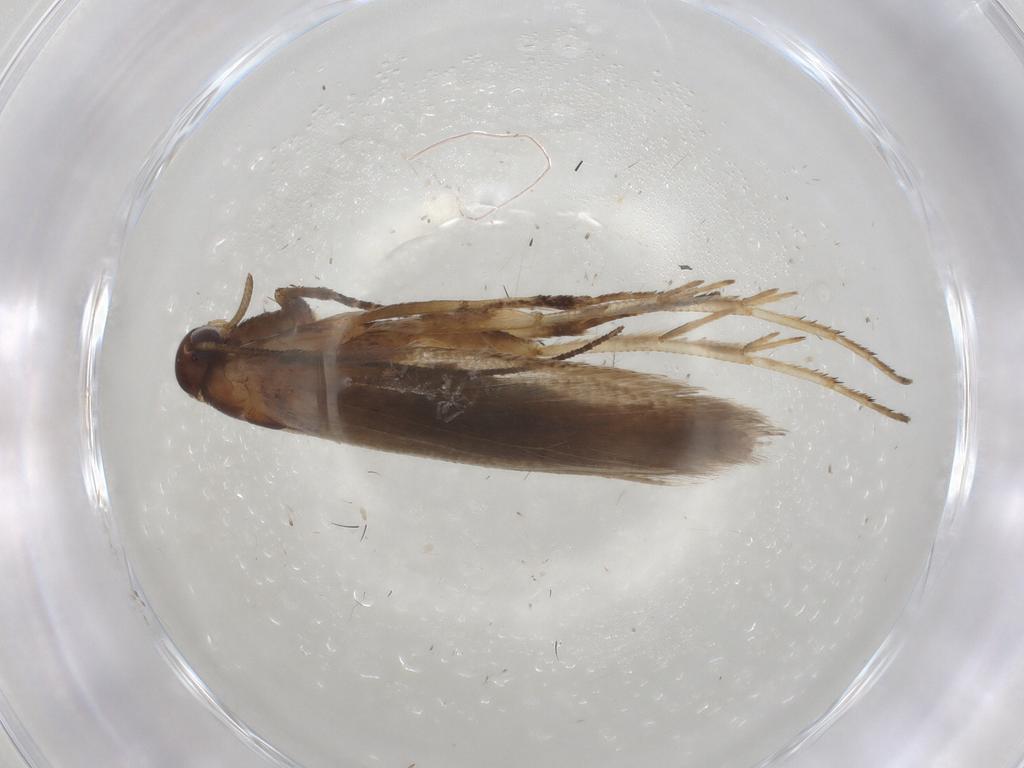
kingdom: Animalia
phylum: Arthropoda
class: Insecta
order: Lepidoptera
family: Gelechiidae
